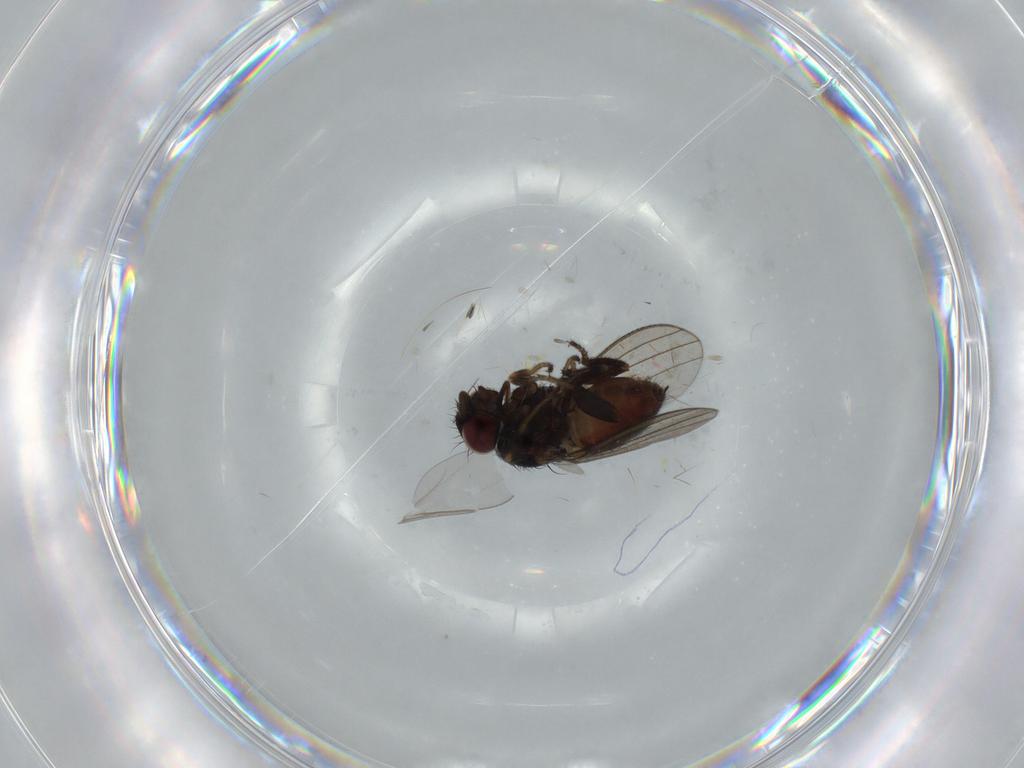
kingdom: Animalia
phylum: Arthropoda
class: Insecta
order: Diptera
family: Milichiidae
